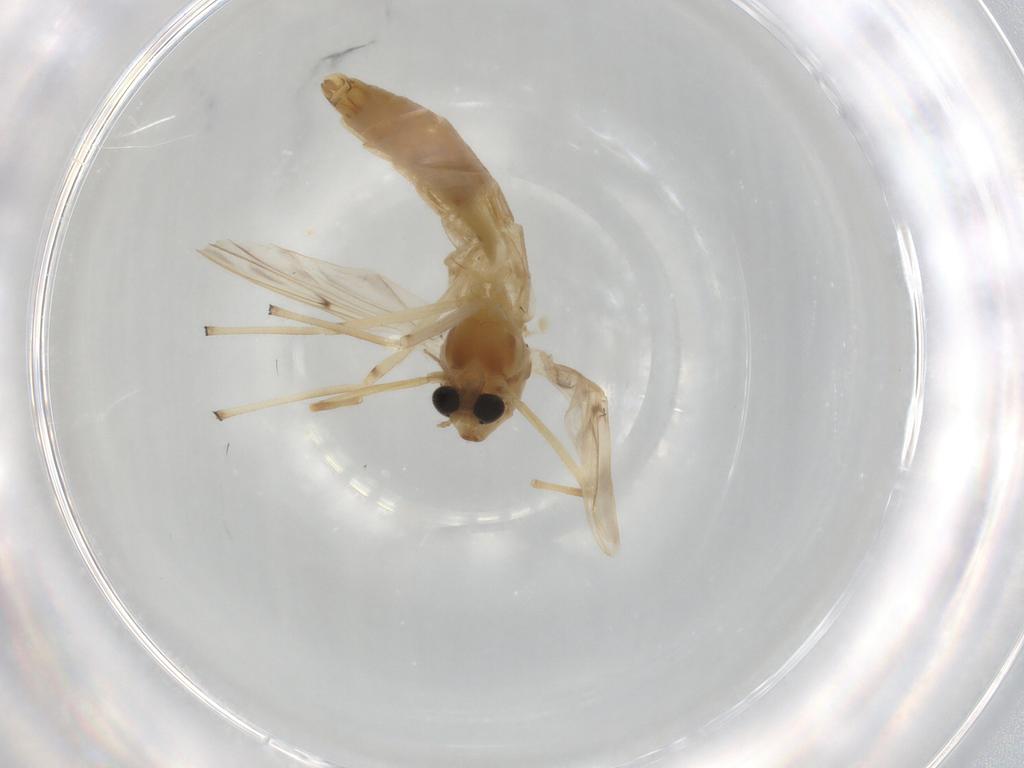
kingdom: Animalia
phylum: Arthropoda
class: Insecta
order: Diptera
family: Chironomidae
